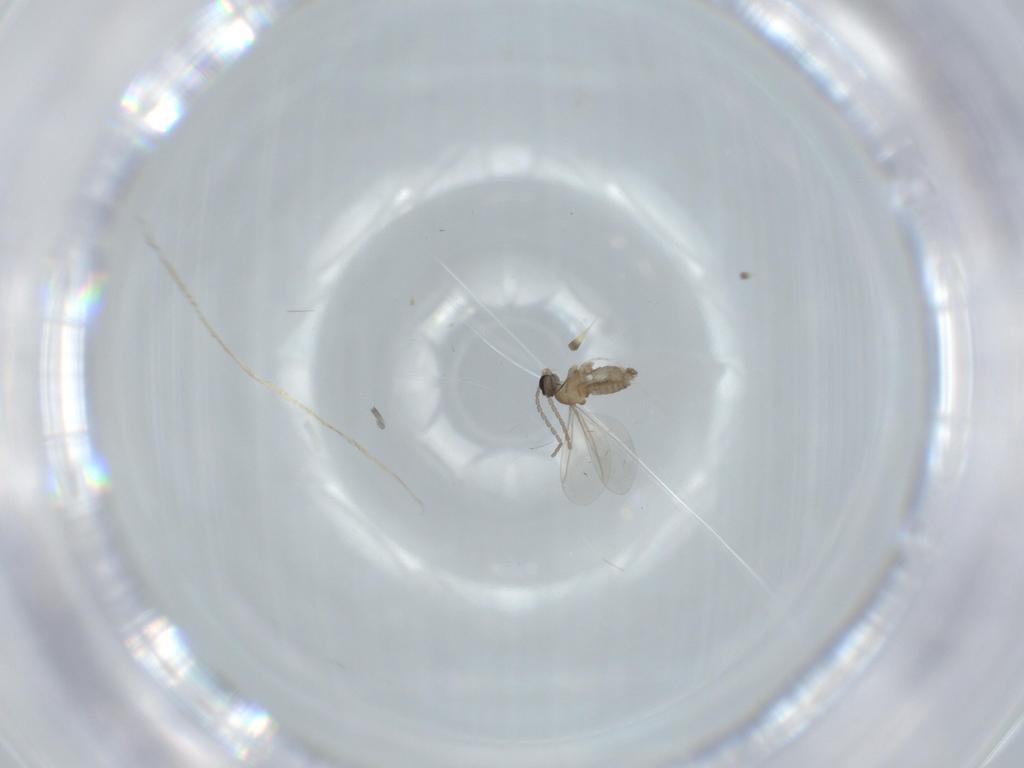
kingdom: Animalia
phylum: Arthropoda
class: Insecta
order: Diptera
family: Cecidomyiidae
